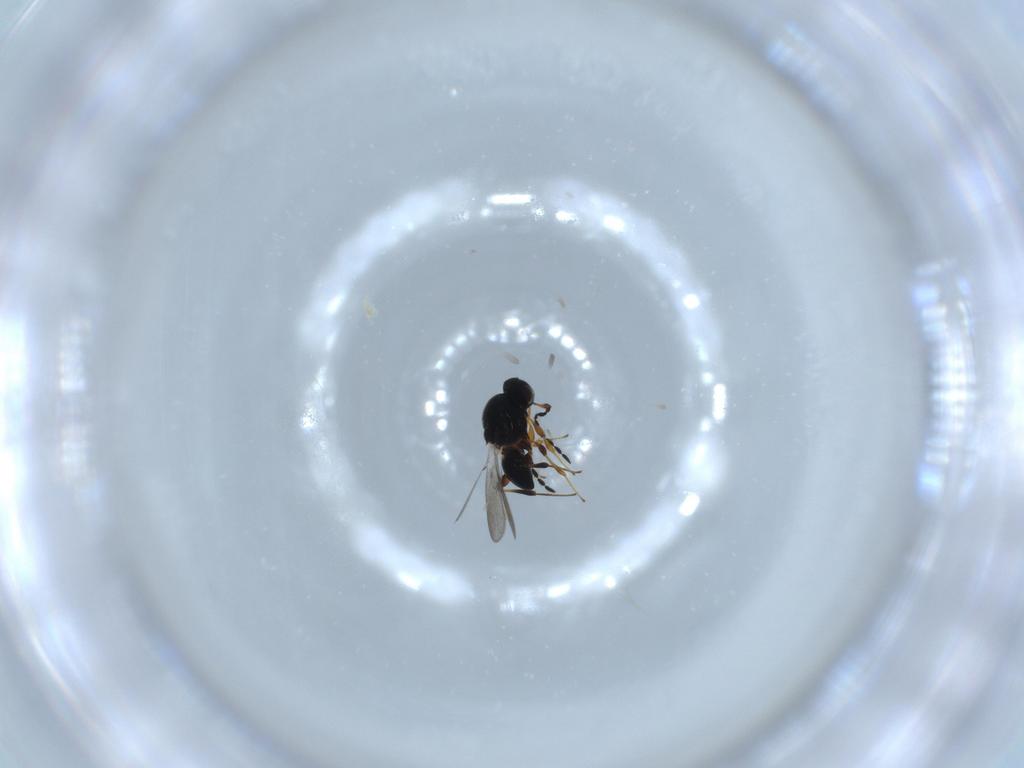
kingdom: Animalia
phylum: Arthropoda
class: Insecta
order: Hymenoptera
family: Platygastridae
